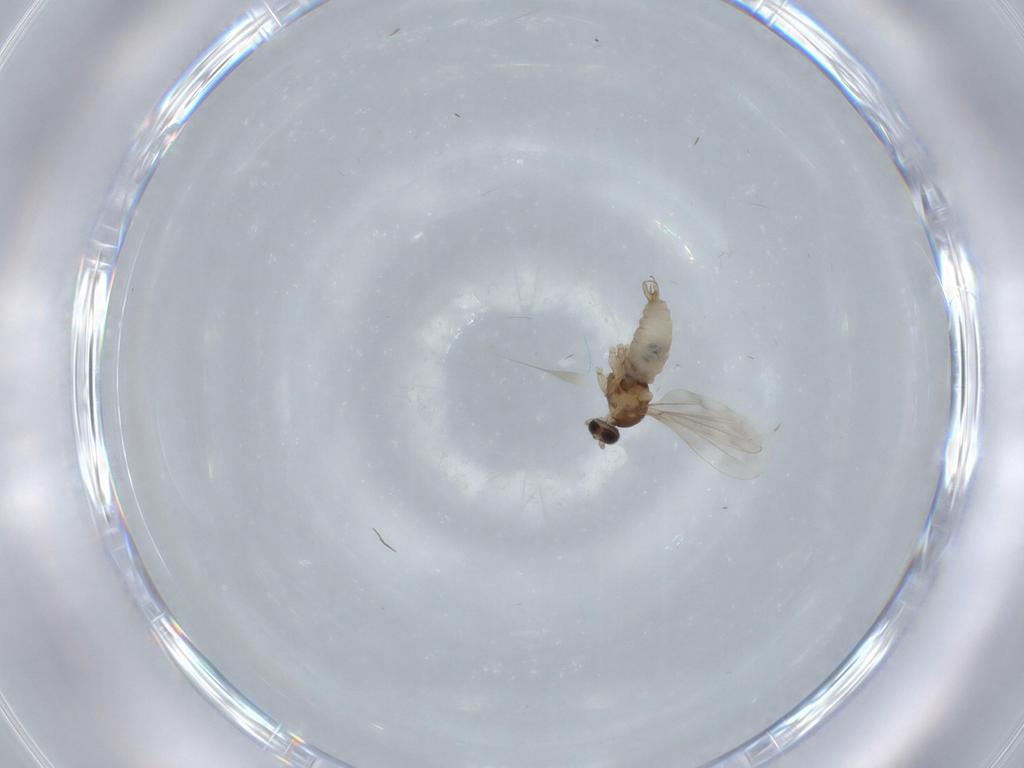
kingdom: Animalia
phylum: Arthropoda
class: Insecta
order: Diptera
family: Cecidomyiidae
